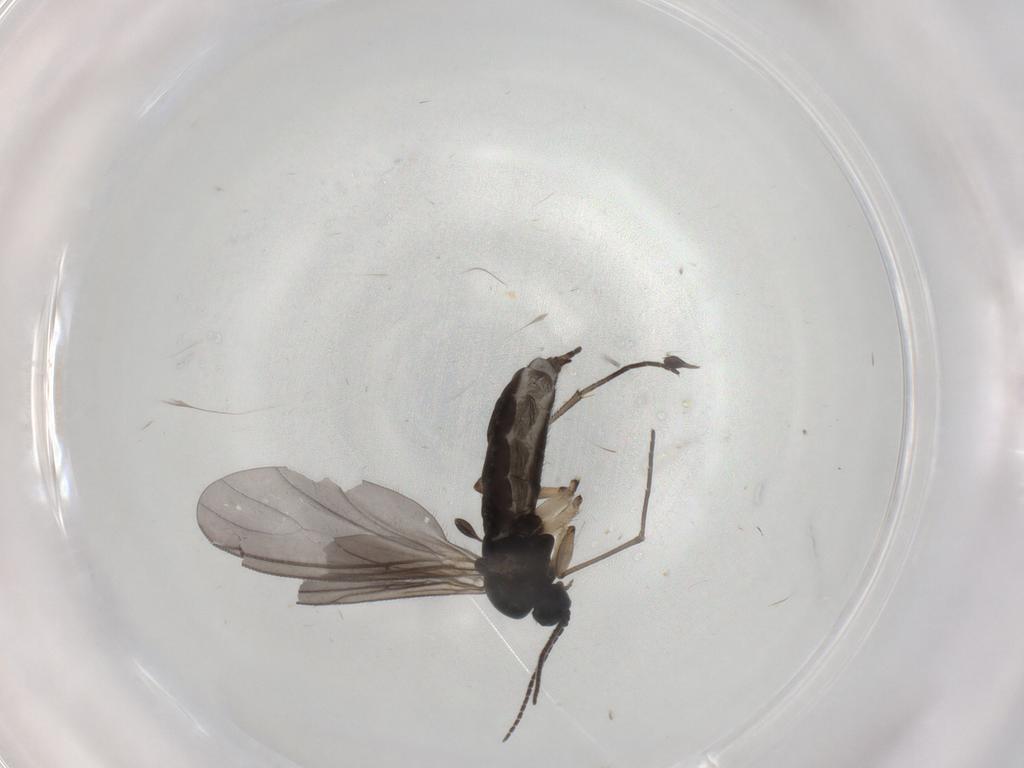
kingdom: Animalia
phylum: Arthropoda
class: Insecta
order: Diptera
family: Sciaridae
